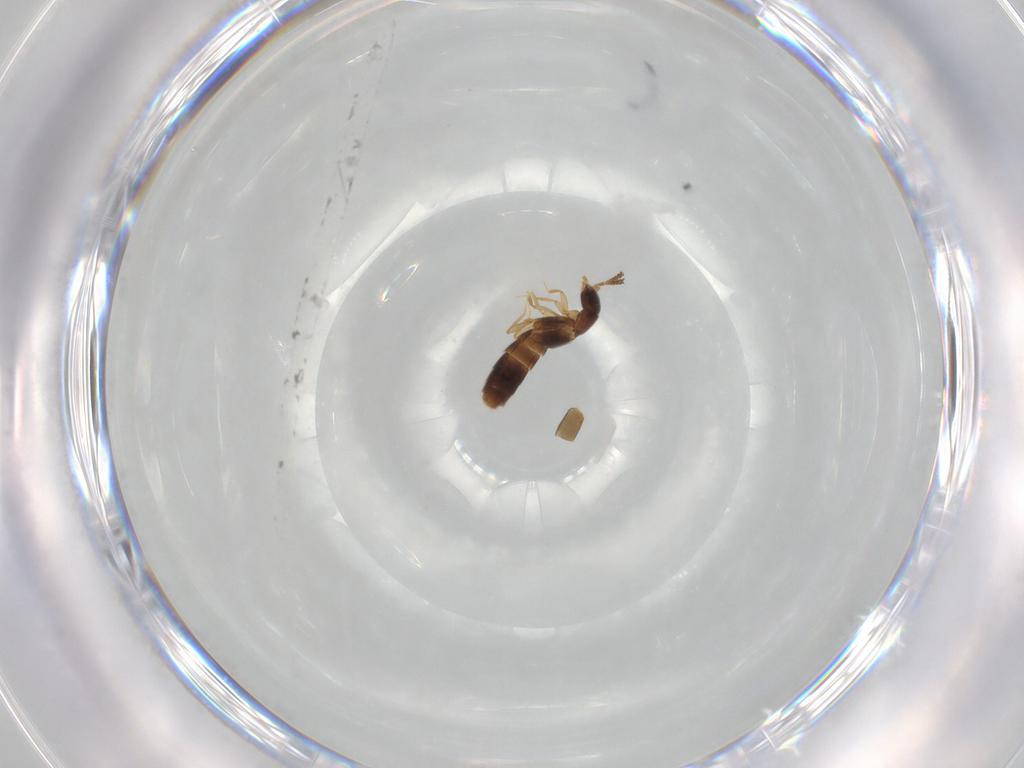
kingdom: Animalia
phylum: Arthropoda
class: Insecta
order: Coleoptera
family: Staphylinidae
